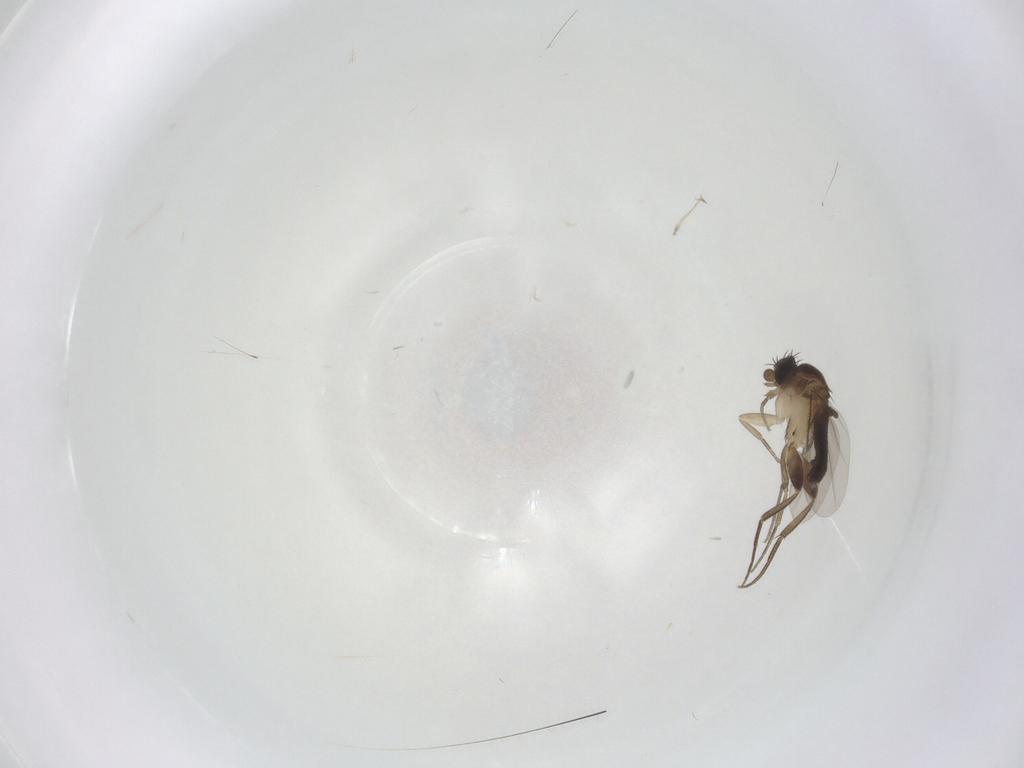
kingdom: Animalia
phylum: Arthropoda
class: Insecta
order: Diptera
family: Phoridae
